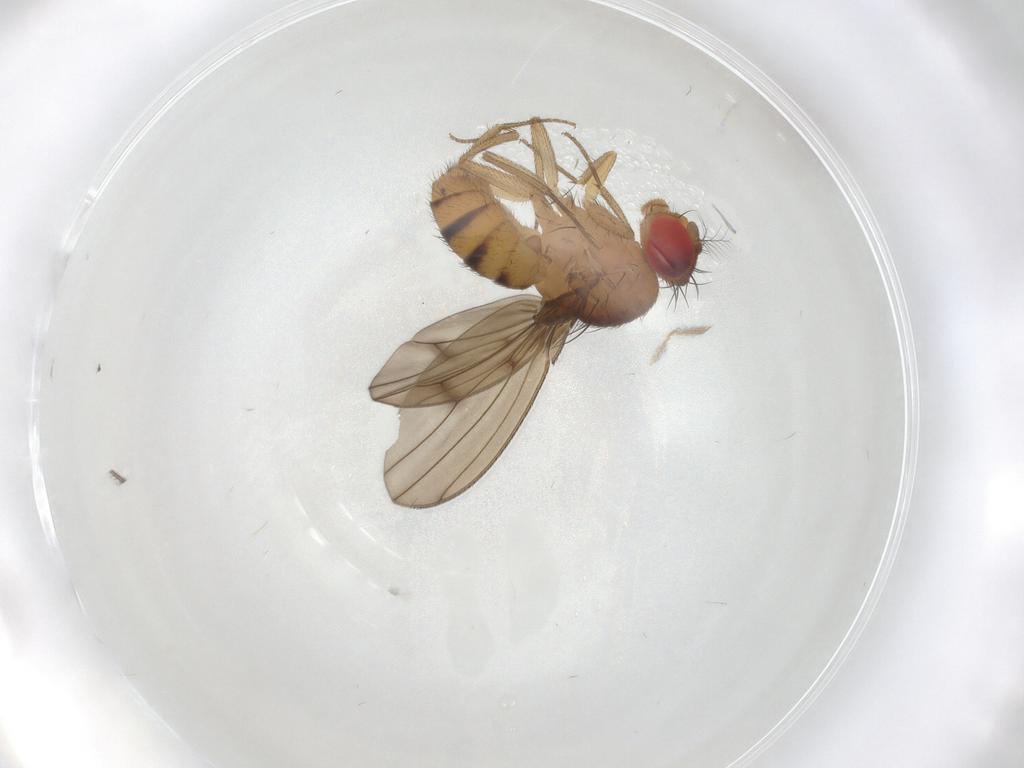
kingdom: Animalia
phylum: Arthropoda
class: Insecta
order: Diptera
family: Drosophilidae
